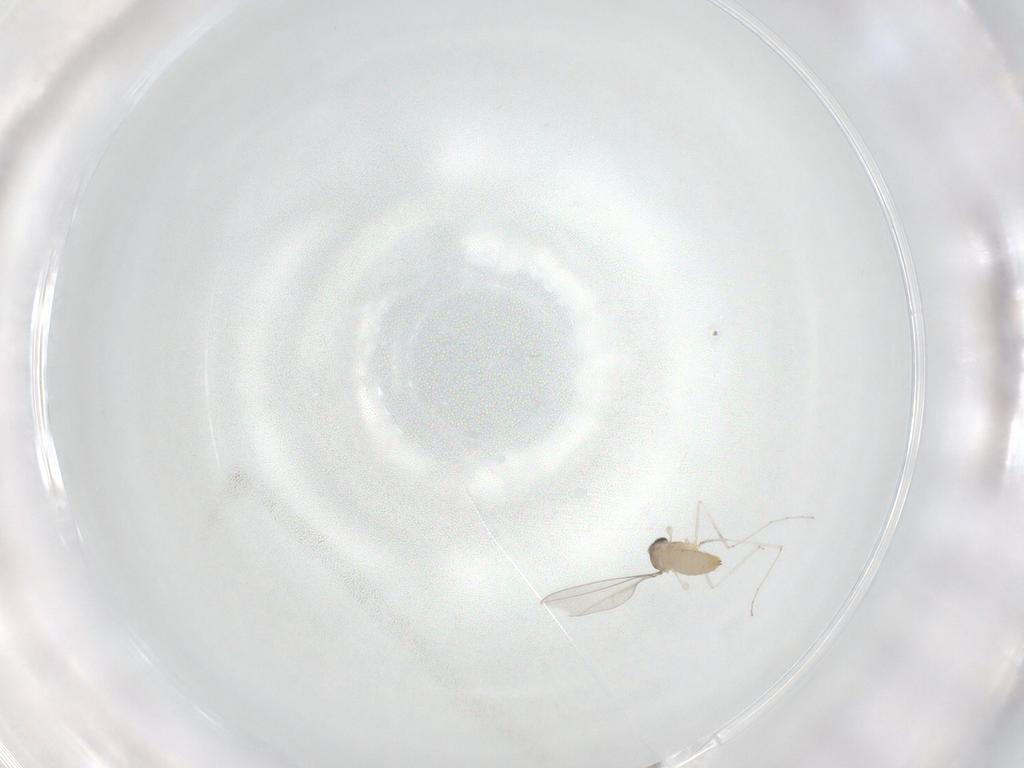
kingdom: Animalia
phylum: Arthropoda
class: Insecta
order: Diptera
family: Cecidomyiidae
